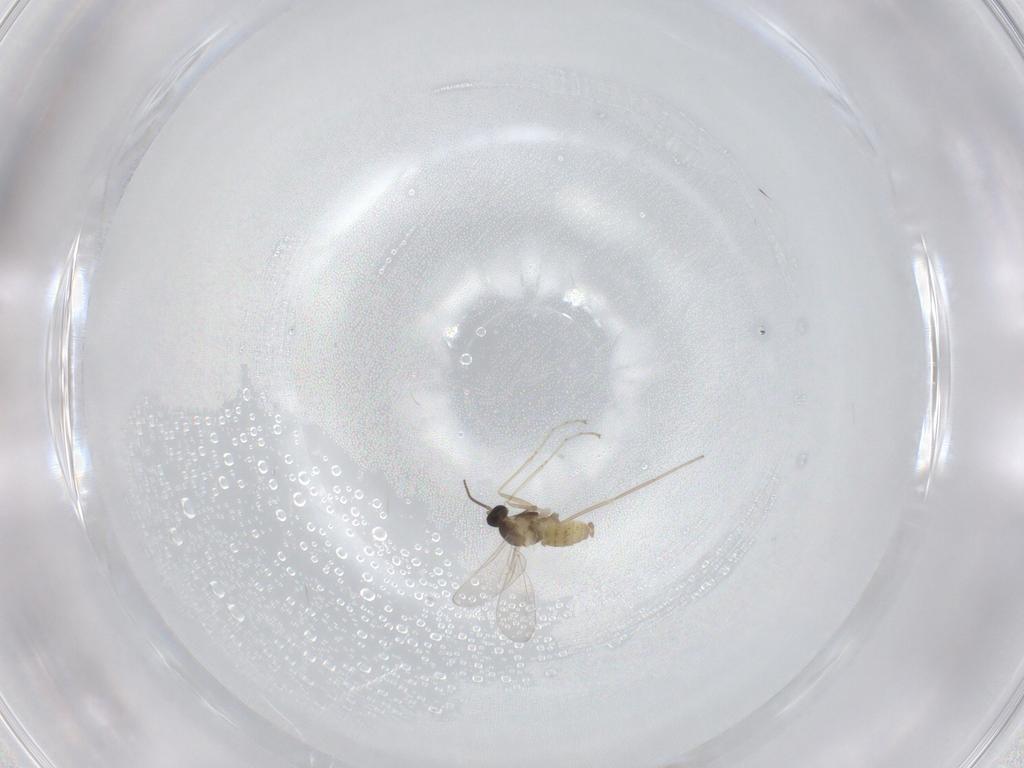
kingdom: Animalia
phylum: Arthropoda
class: Insecta
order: Diptera
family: Cecidomyiidae
